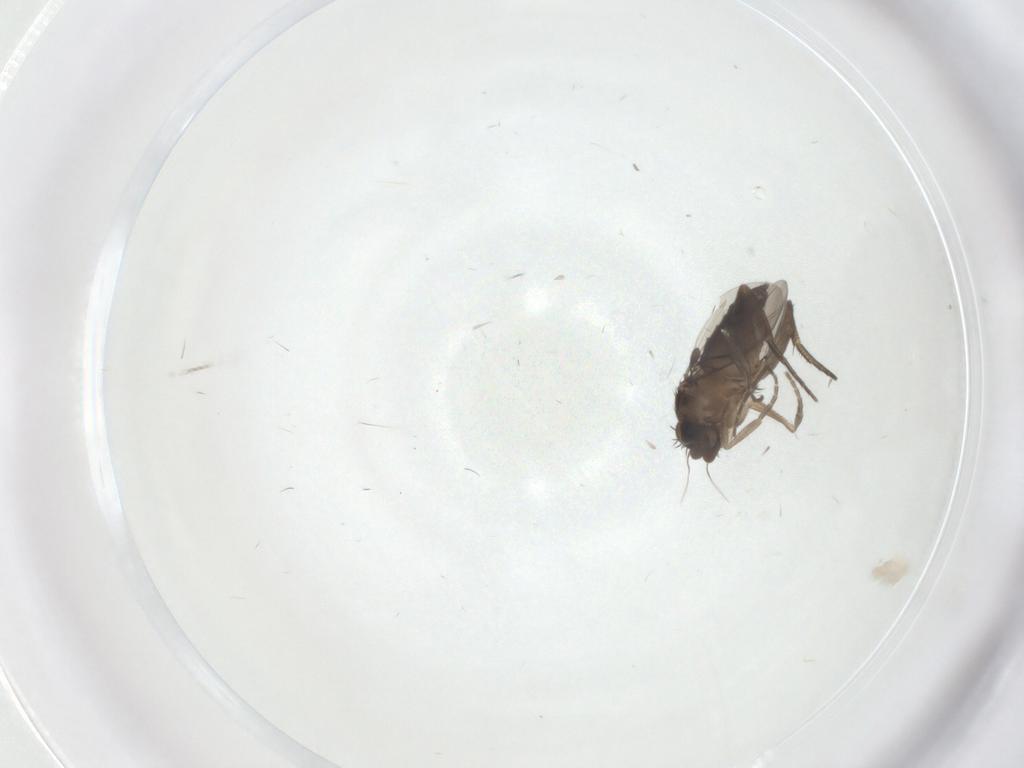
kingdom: Animalia
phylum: Arthropoda
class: Insecta
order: Diptera
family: Phoridae
